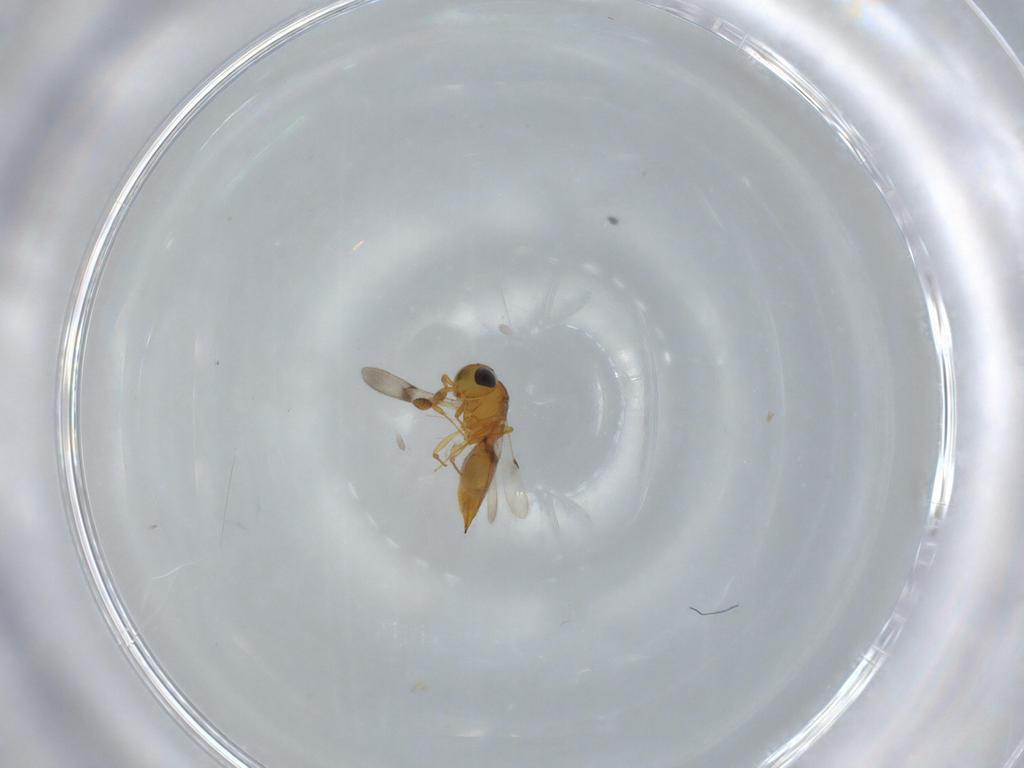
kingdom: Animalia
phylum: Arthropoda
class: Insecta
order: Hymenoptera
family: Scelionidae
